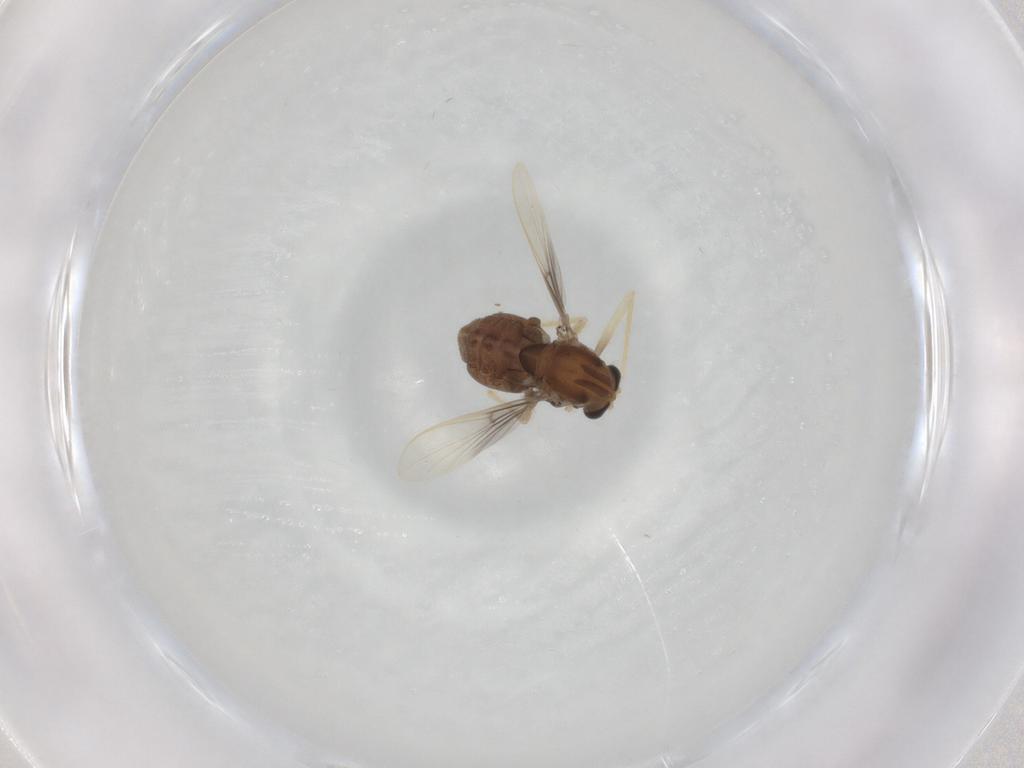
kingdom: Animalia
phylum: Arthropoda
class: Insecta
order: Diptera
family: Chironomidae
